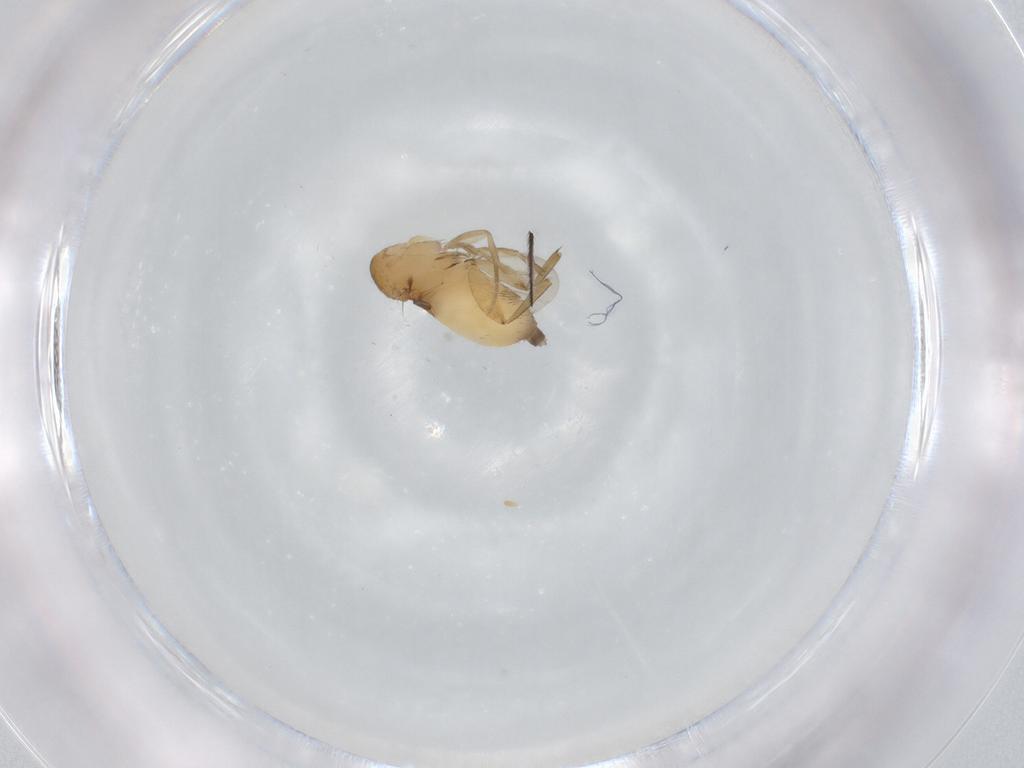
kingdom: Animalia
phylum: Arthropoda
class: Insecta
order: Diptera
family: Phoridae
